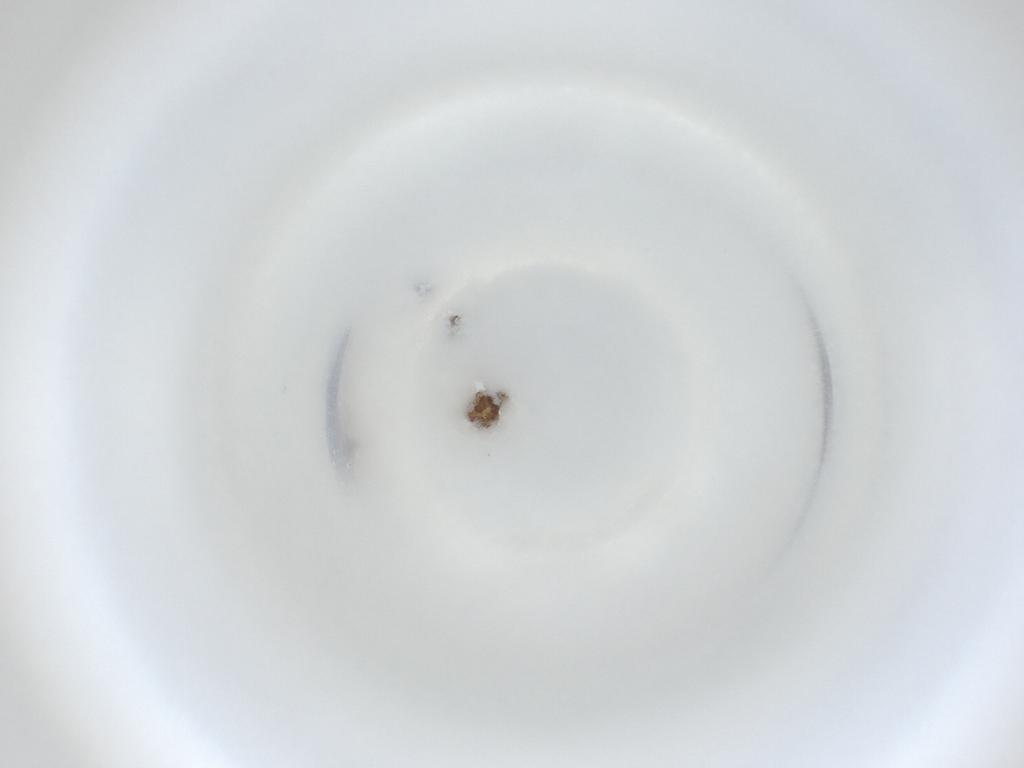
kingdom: Animalia
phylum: Arthropoda
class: Insecta
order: Diptera
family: Cecidomyiidae
